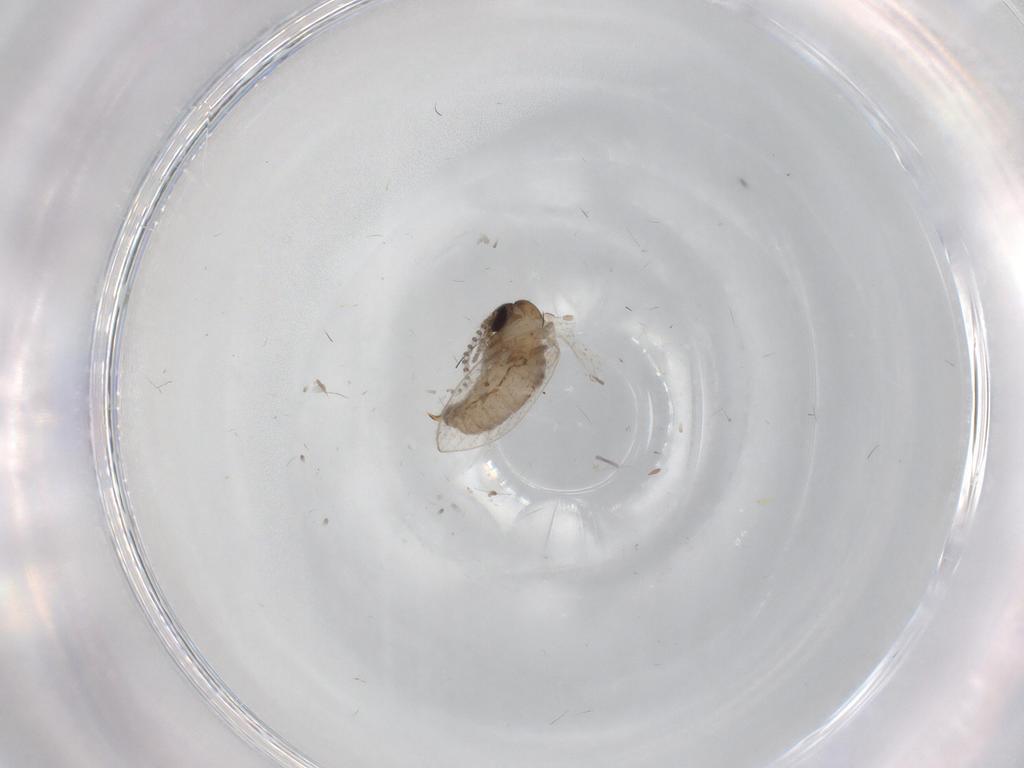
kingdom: Animalia
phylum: Arthropoda
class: Insecta
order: Diptera
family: Psychodidae
